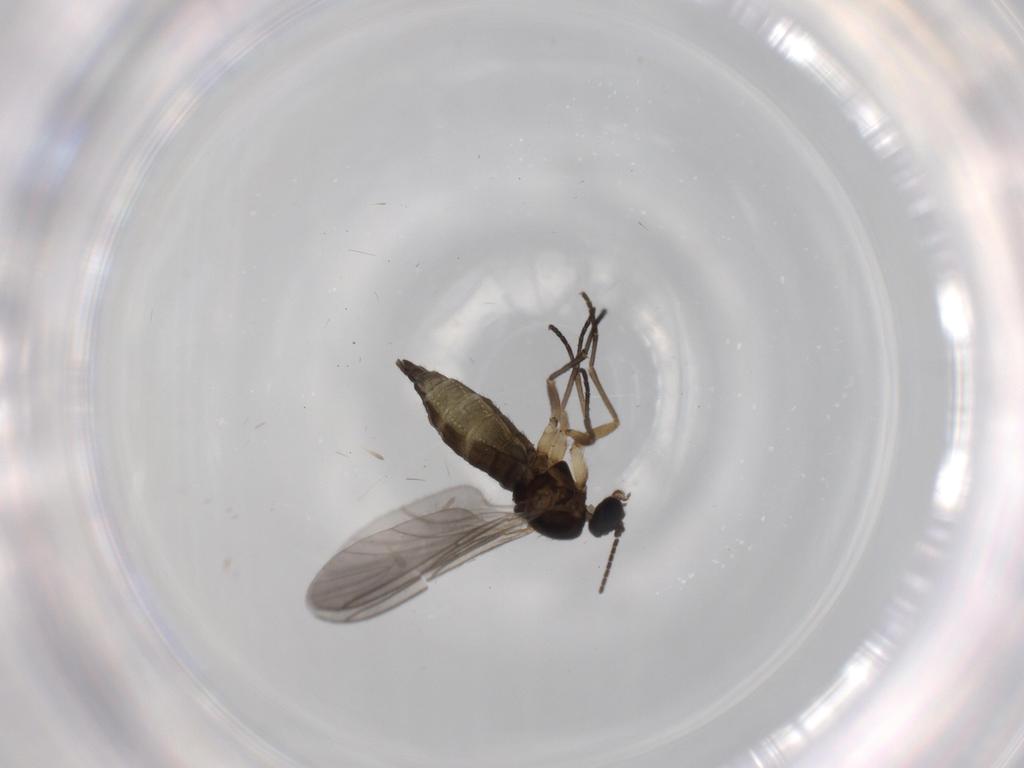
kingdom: Animalia
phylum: Arthropoda
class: Insecta
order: Diptera
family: Sciaridae
